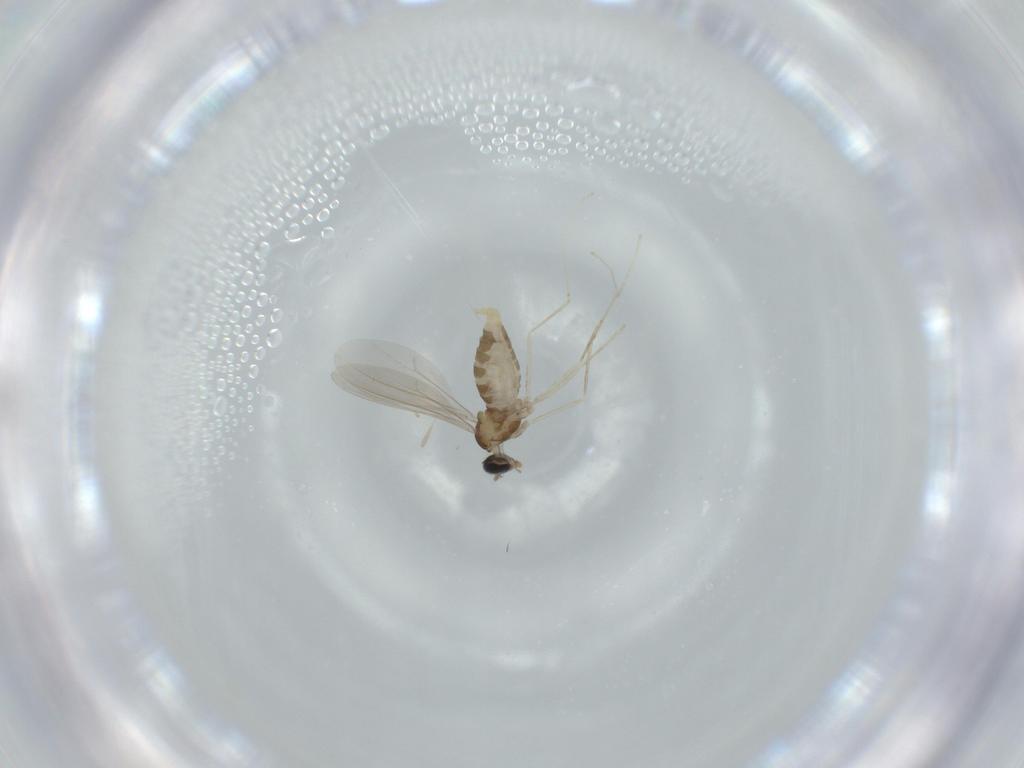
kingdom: Animalia
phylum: Arthropoda
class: Insecta
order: Diptera
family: Cecidomyiidae
